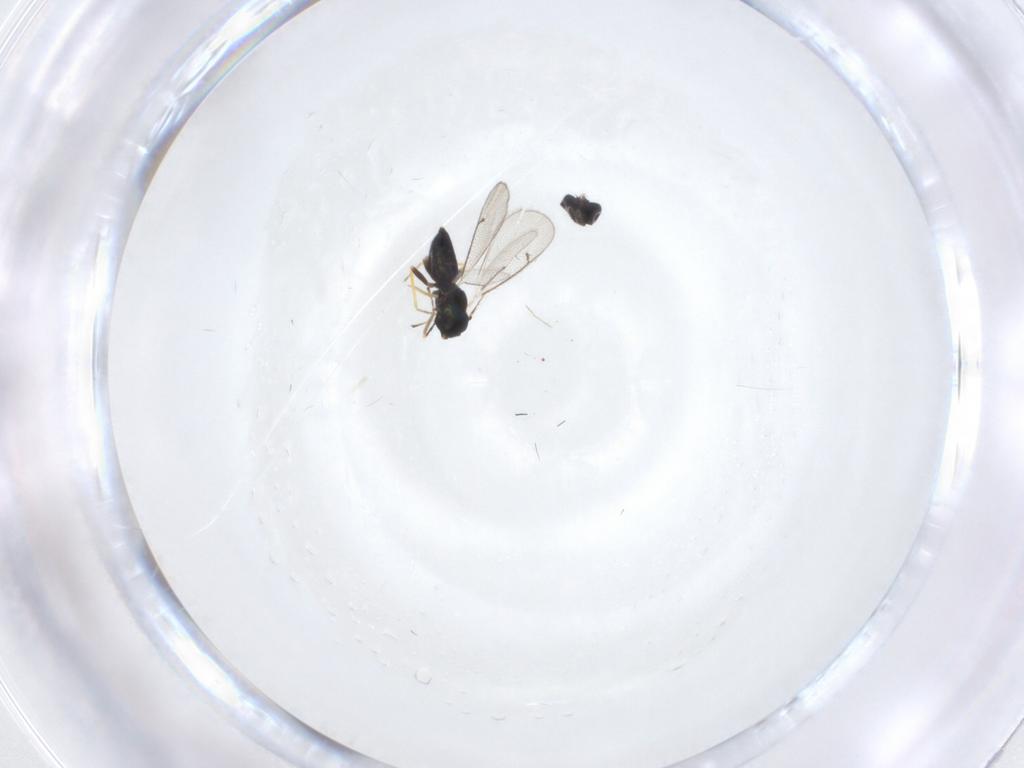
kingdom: Animalia
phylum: Arthropoda
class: Insecta
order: Hymenoptera
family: Eulophidae
